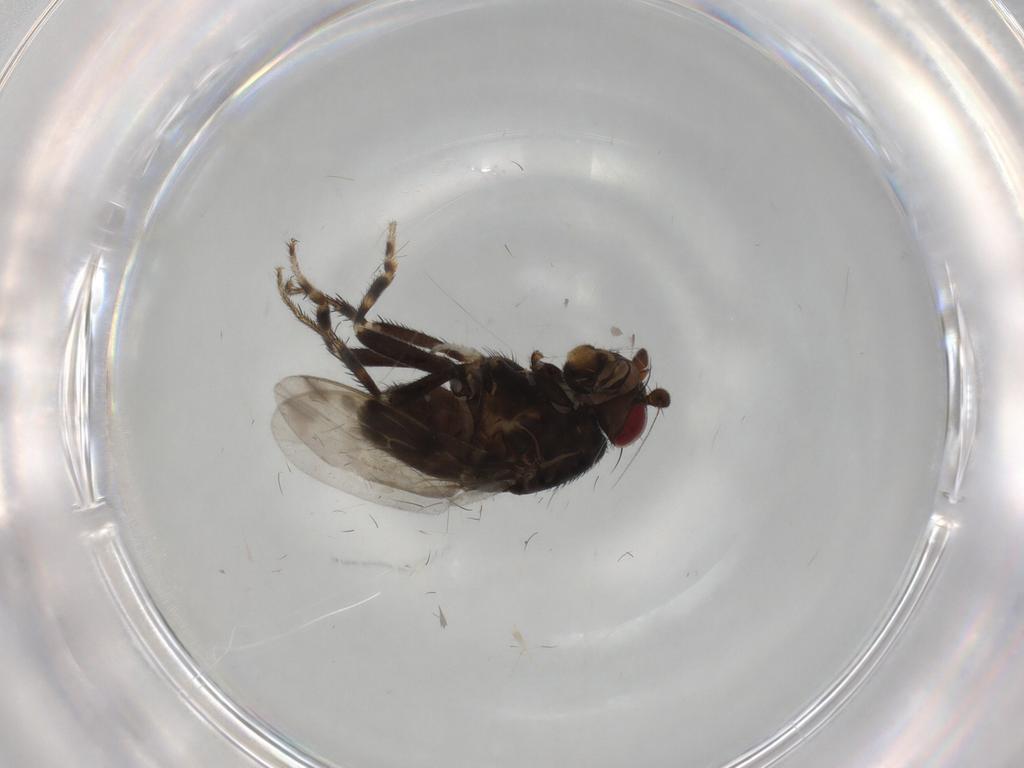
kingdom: Animalia
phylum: Arthropoda
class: Insecta
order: Diptera
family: Sphaeroceridae
